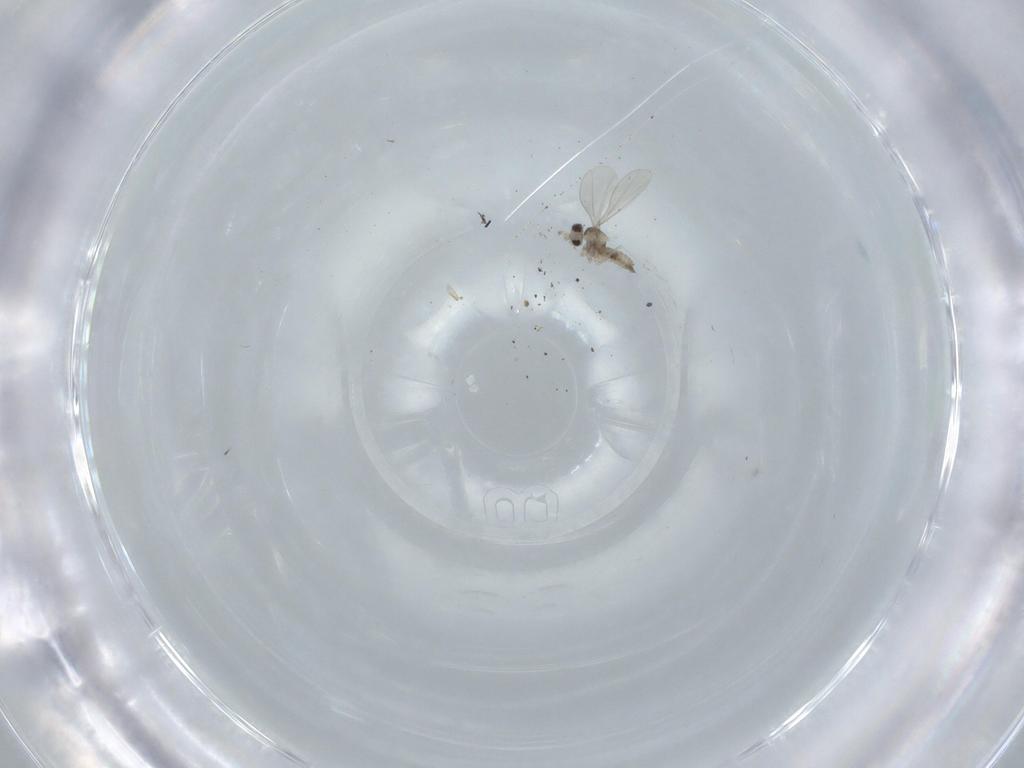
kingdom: Animalia
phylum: Arthropoda
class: Insecta
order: Diptera
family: Cecidomyiidae
